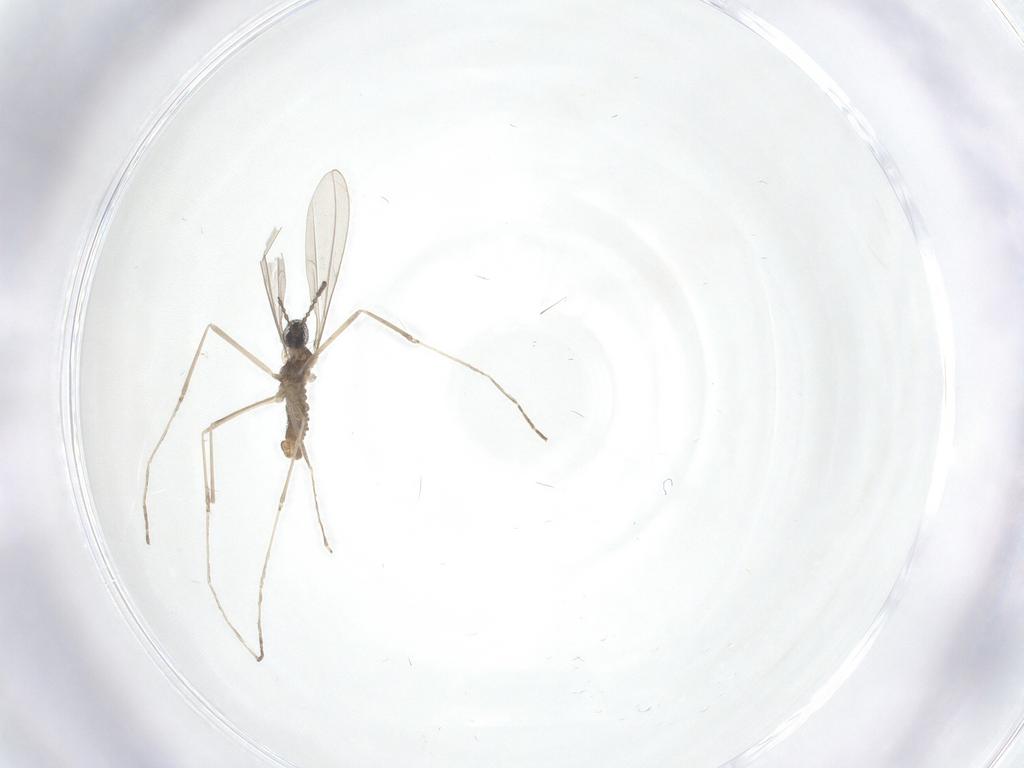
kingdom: Animalia
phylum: Arthropoda
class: Insecta
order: Diptera
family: Cecidomyiidae
